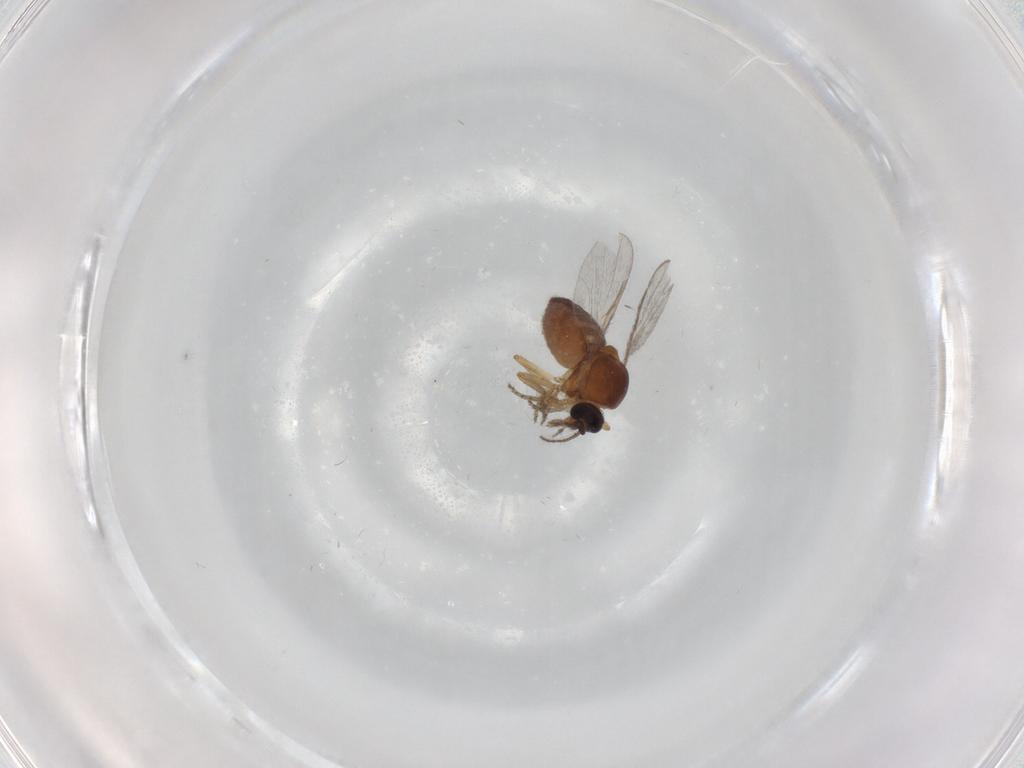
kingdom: Animalia
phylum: Arthropoda
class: Insecta
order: Diptera
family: Ceratopogonidae
